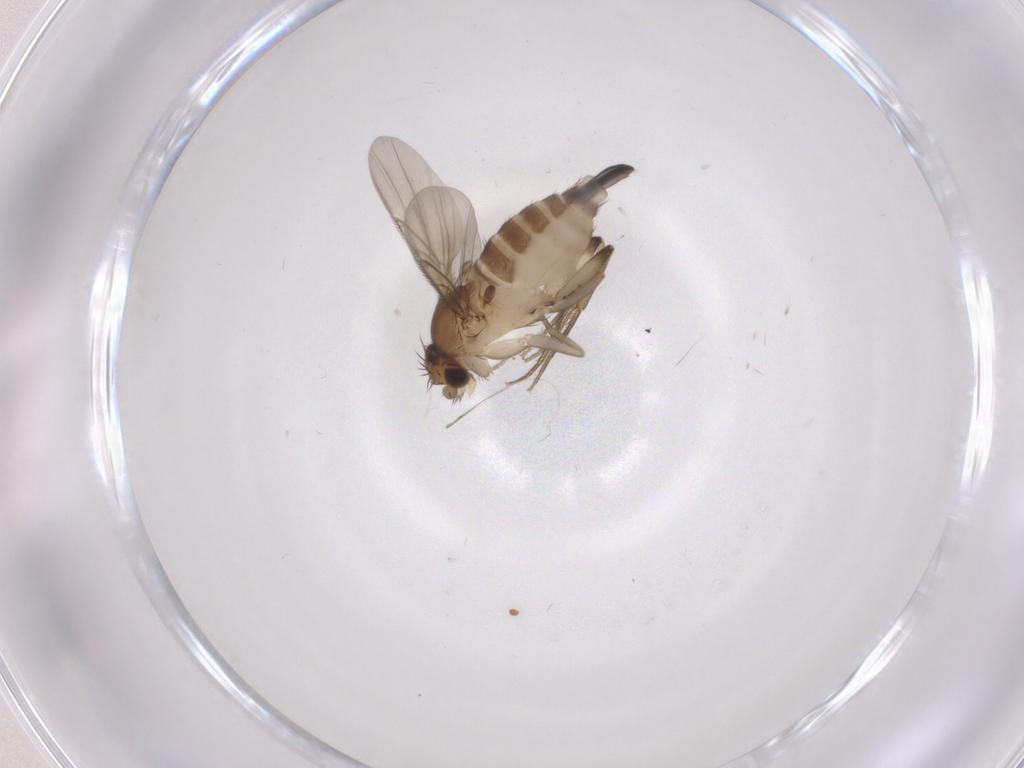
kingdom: Animalia
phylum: Arthropoda
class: Insecta
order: Diptera
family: Phoridae
